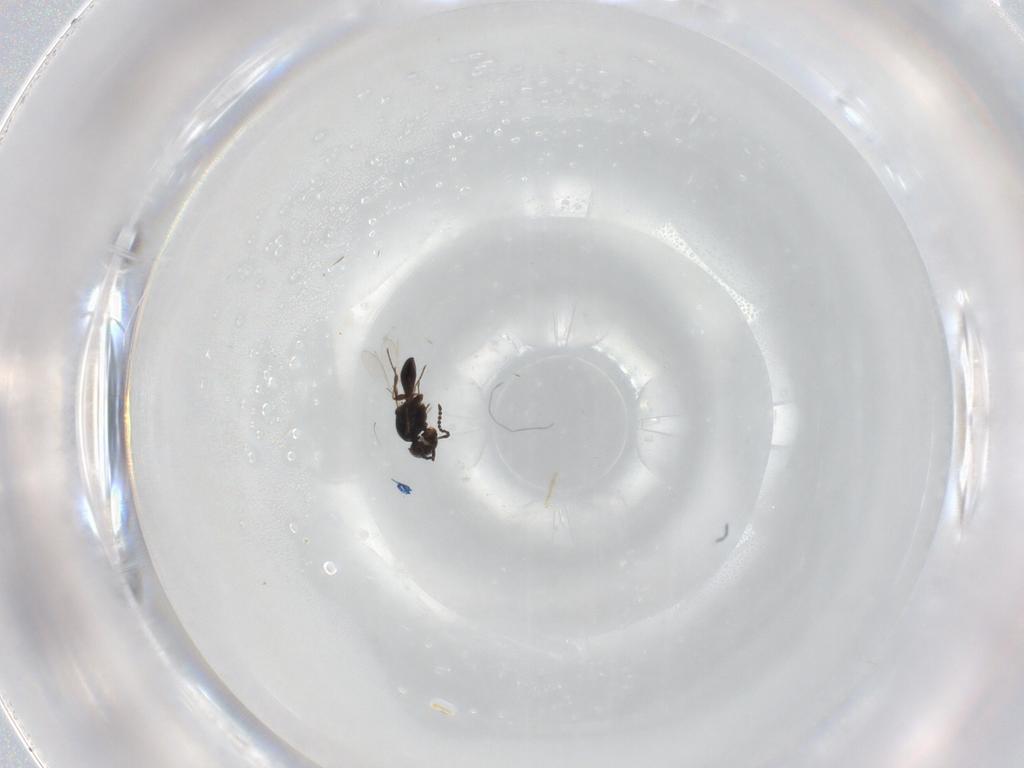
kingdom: Animalia
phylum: Arthropoda
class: Insecta
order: Hymenoptera
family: Platygastridae
